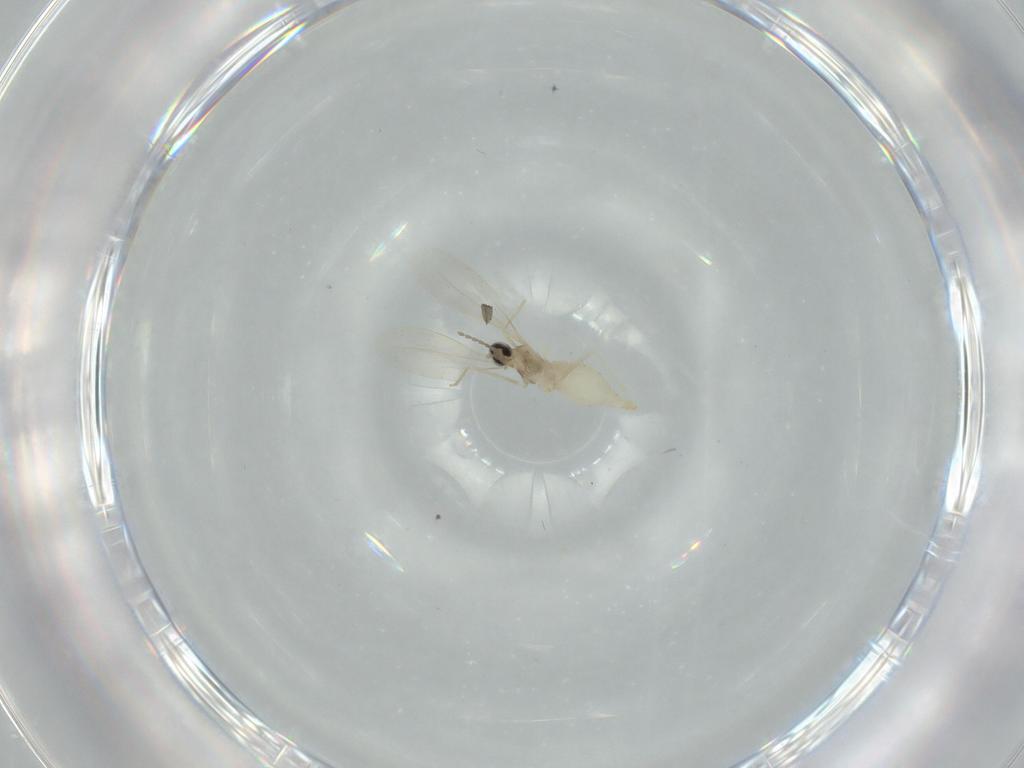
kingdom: Animalia
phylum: Arthropoda
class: Insecta
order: Diptera
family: Cecidomyiidae
